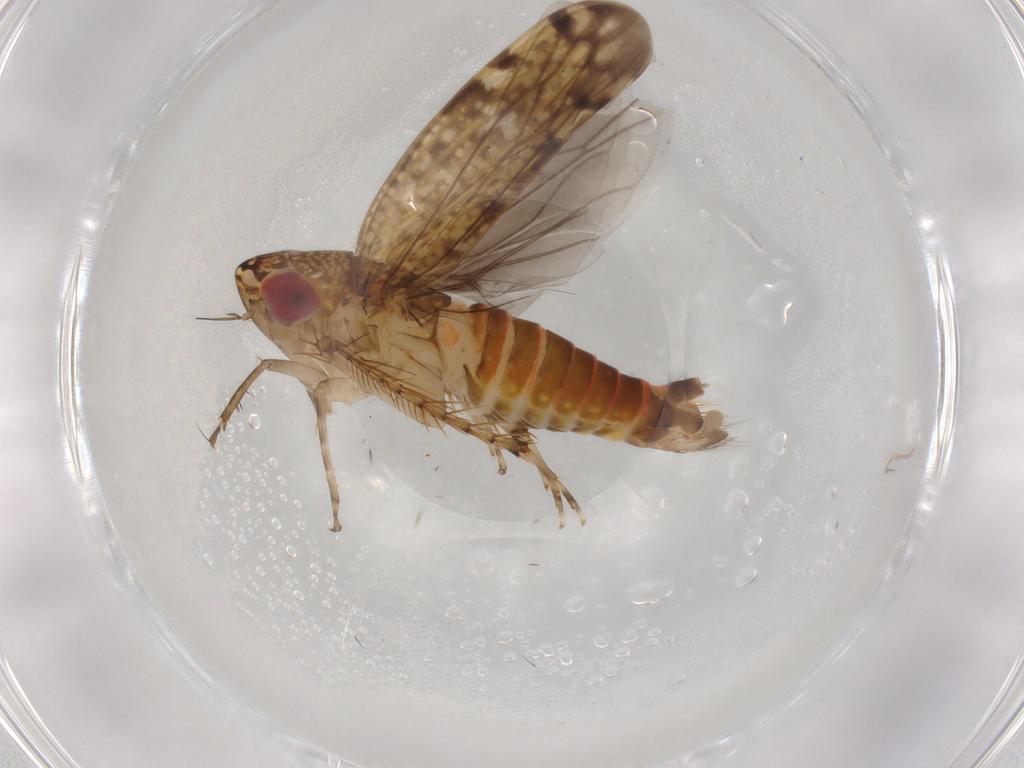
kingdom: Animalia
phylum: Arthropoda
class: Insecta
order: Hemiptera
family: Cicadellidae
